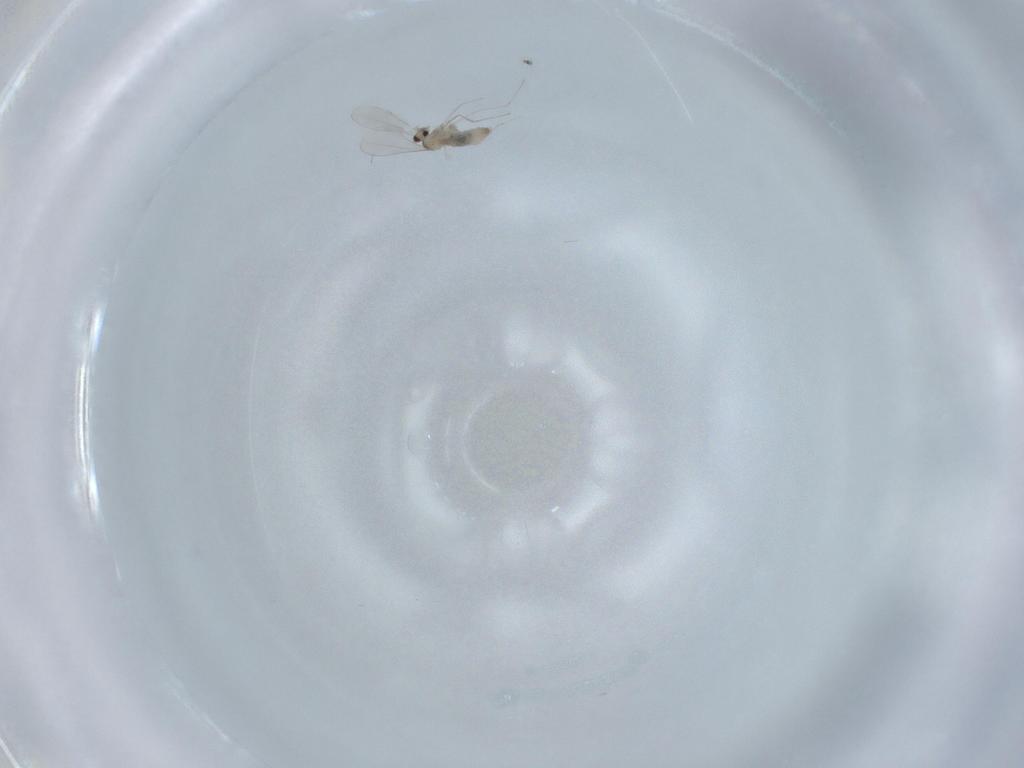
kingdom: Animalia
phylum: Arthropoda
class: Insecta
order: Diptera
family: Cecidomyiidae
